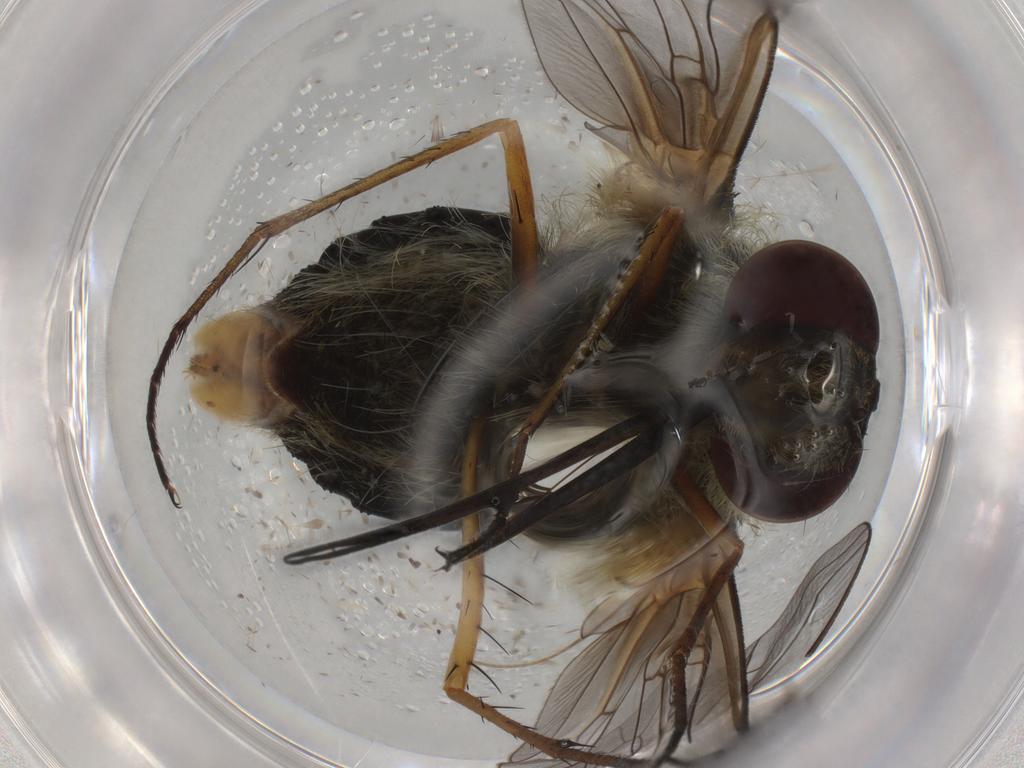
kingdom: Animalia
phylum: Arthropoda
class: Insecta
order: Diptera
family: Bombyliidae
